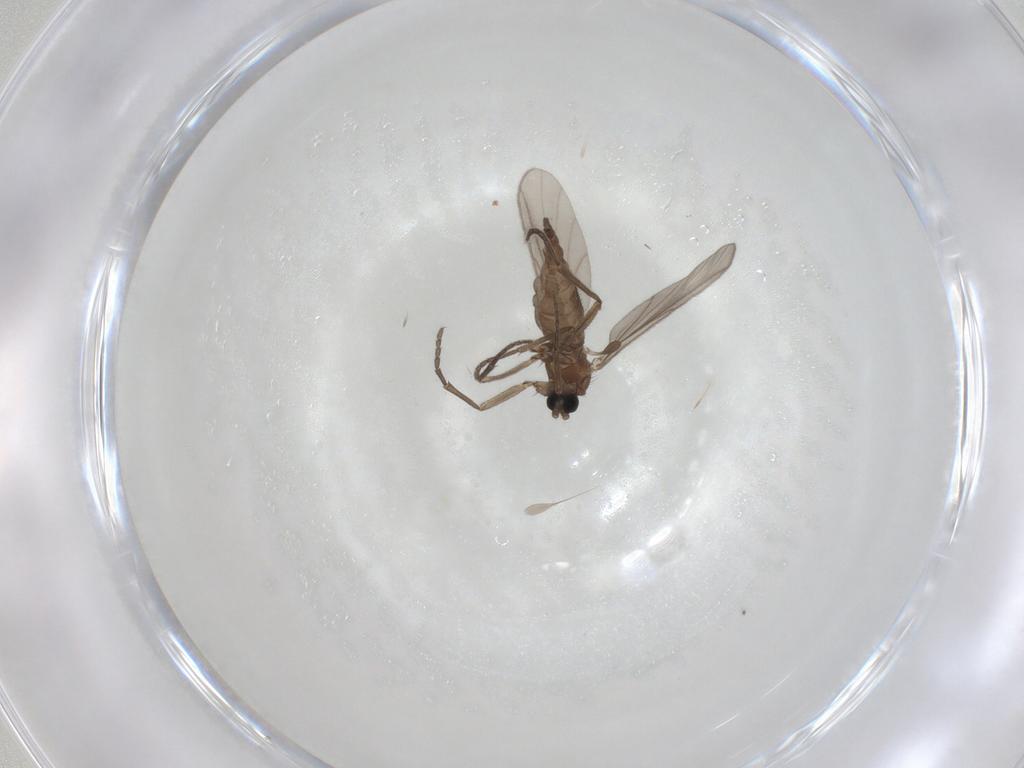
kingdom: Animalia
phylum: Arthropoda
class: Insecta
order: Diptera
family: Sciaridae
